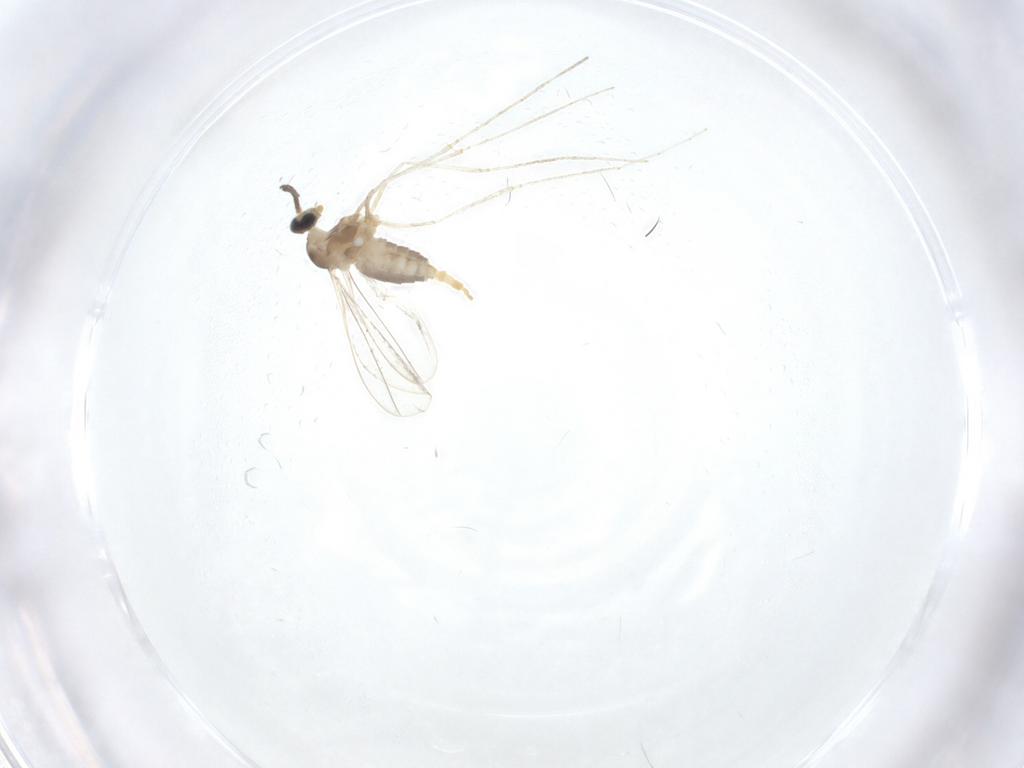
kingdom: Animalia
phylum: Arthropoda
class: Insecta
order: Diptera
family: Cecidomyiidae
